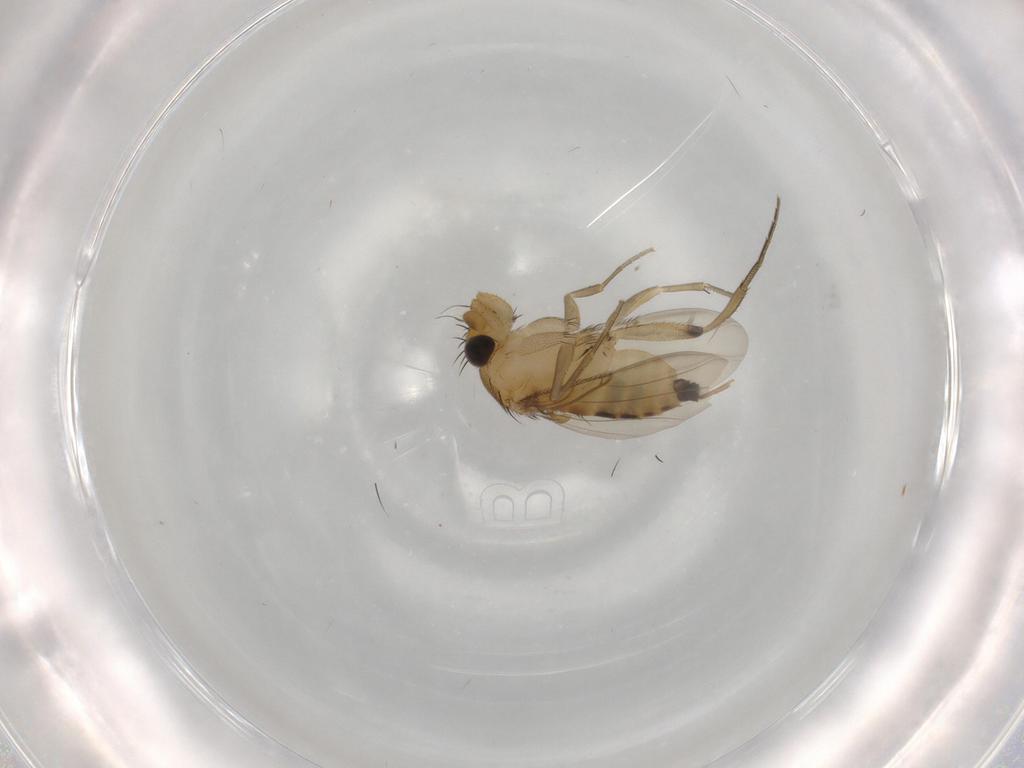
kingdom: Animalia
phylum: Arthropoda
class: Insecta
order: Diptera
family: Phoridae
